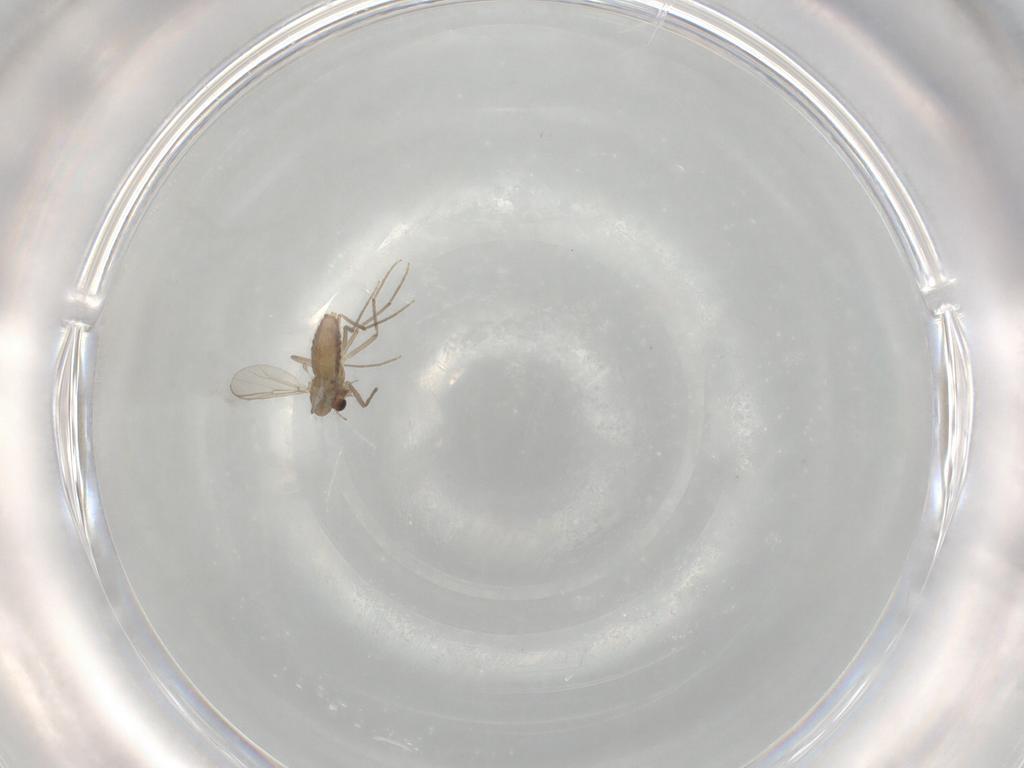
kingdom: Animalia
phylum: Arthropoda
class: Insecta
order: Diptera
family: Chironomidae
